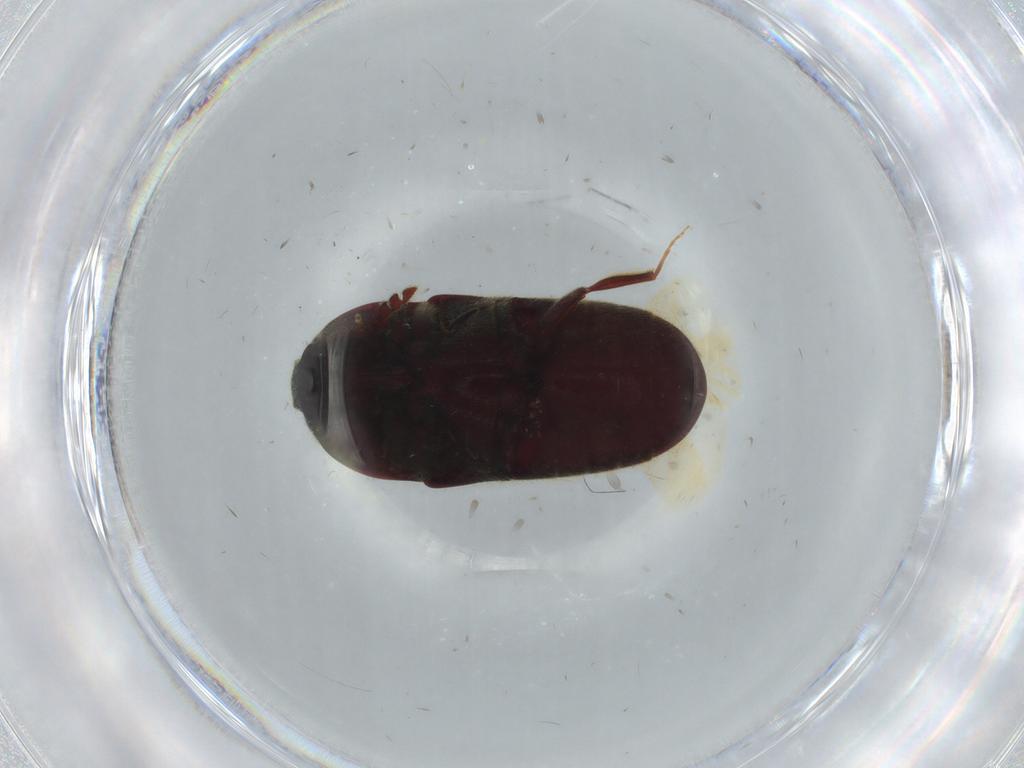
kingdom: Animalia
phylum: Arthropoda
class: Insecta
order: Coleoptera
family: Throscidae
